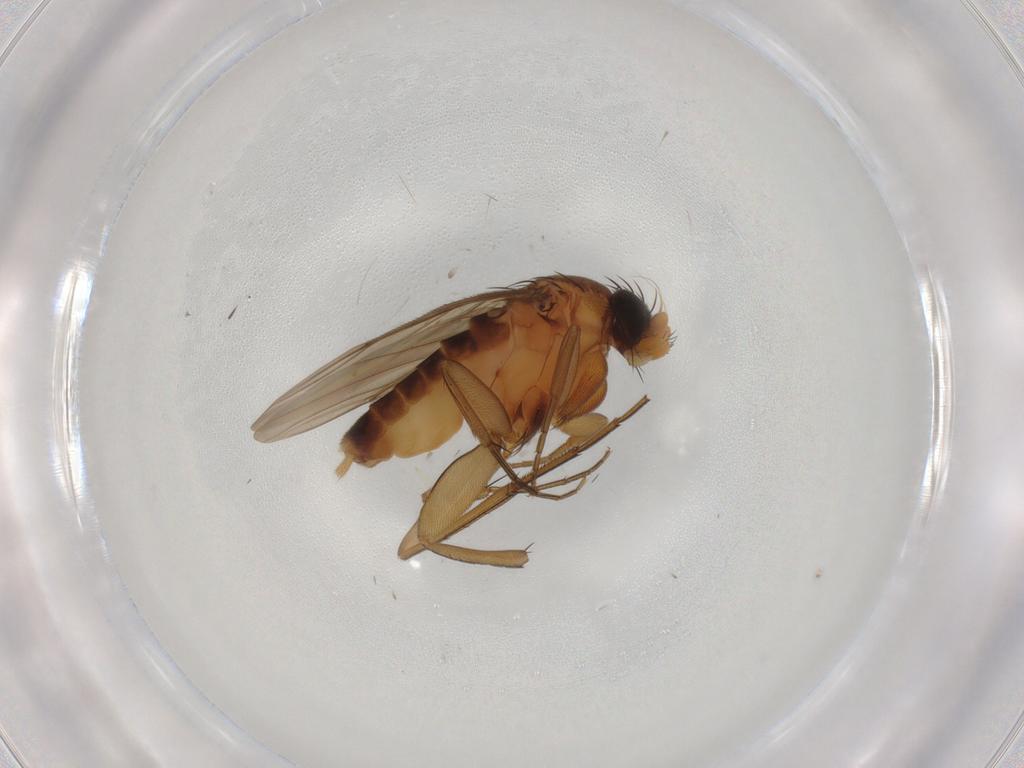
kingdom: Animalia
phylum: Arthropoda
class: Insecta
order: Diptera
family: Phoridae
